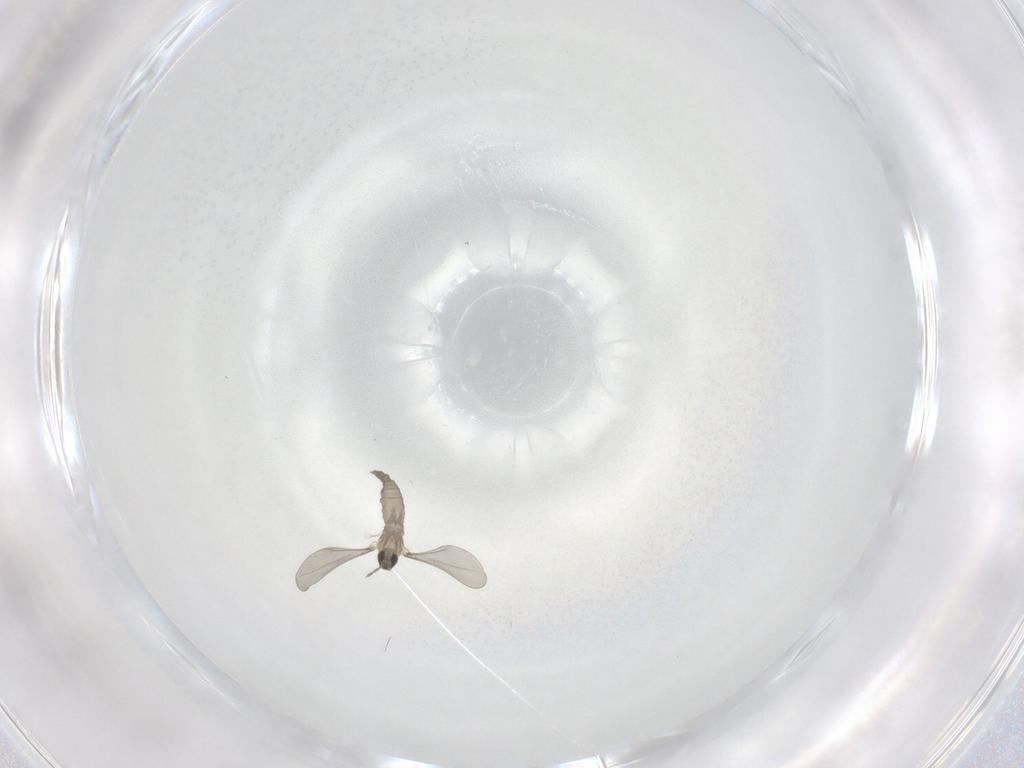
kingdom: Animalia
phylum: Arthropoda
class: Insecta
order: Diptera
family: Cecidomyiidae
